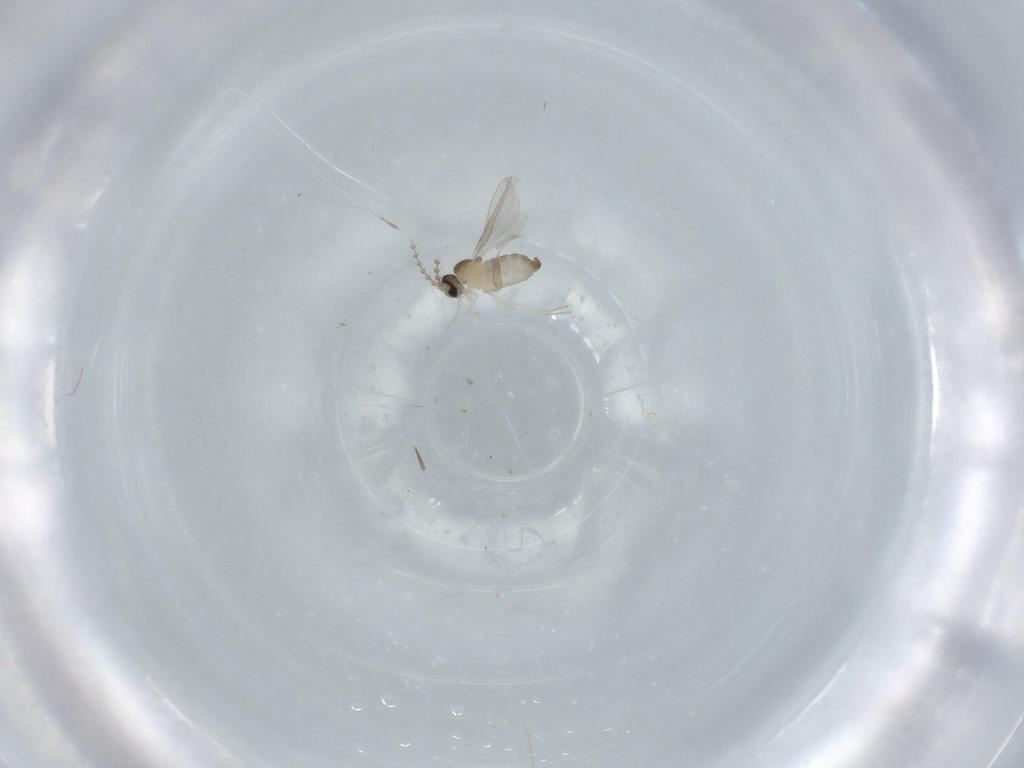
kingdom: Animalia
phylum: Arthropoda
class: Insecta
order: Diptera
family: Cecidomyiidae
